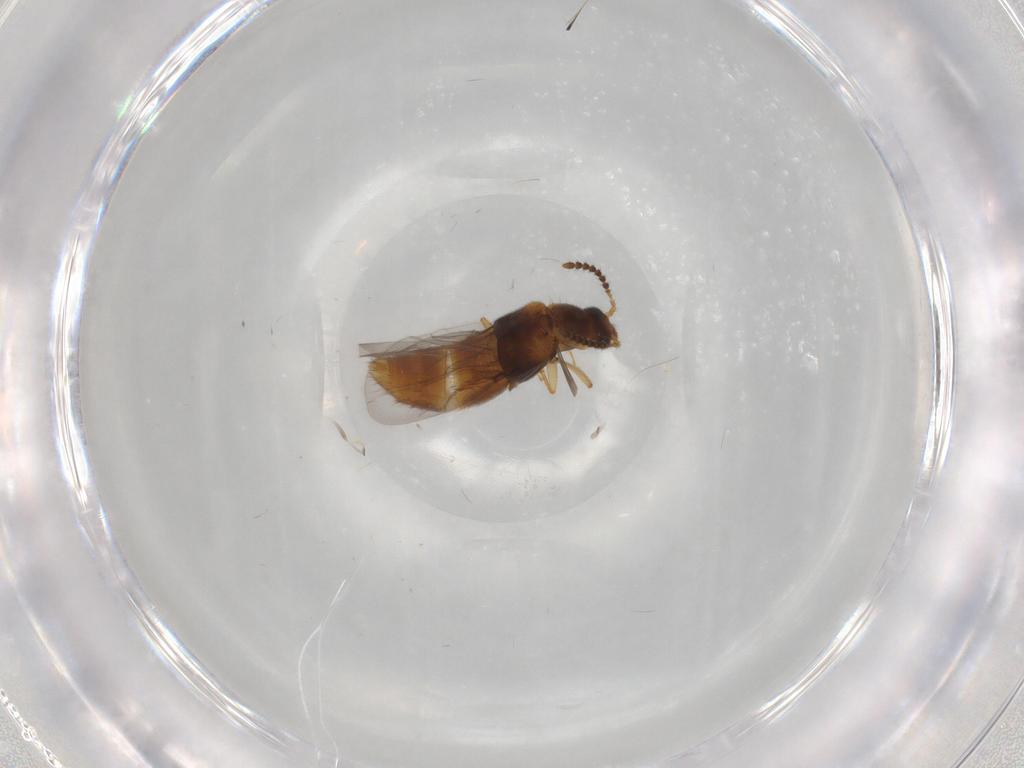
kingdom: Animalia
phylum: Arthropoda
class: Insecta
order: Coleoptera
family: Staphylinidae
